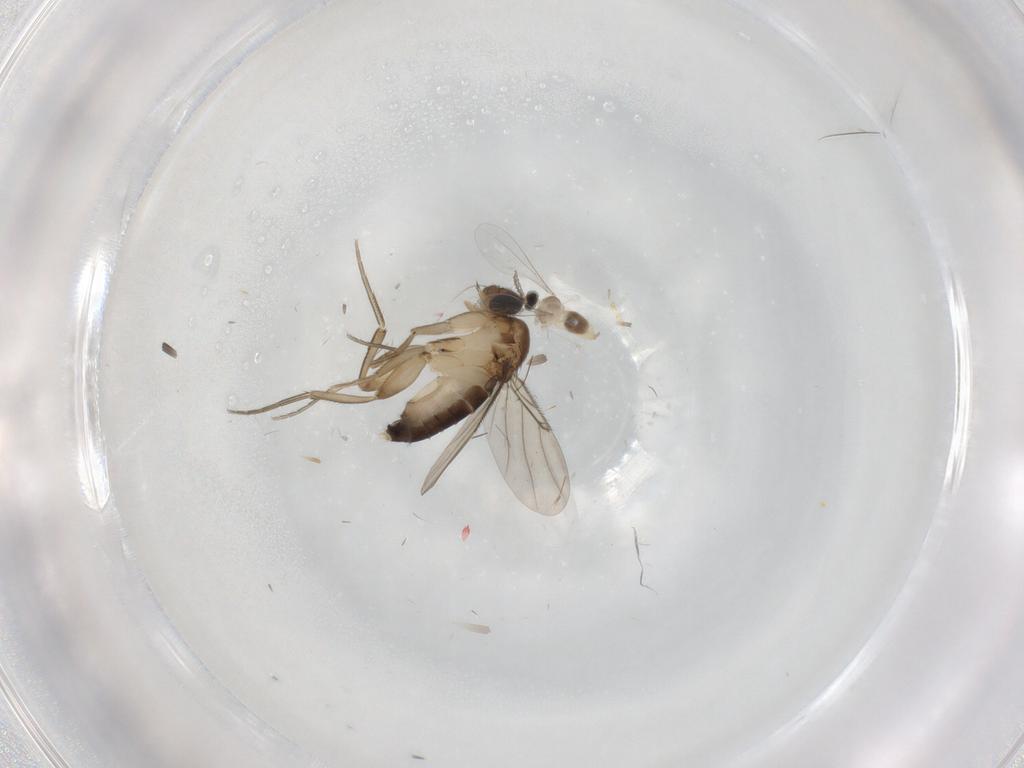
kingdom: Animalia
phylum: Arthropoda
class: Insecta
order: Diptera
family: Cecidomyiidae
